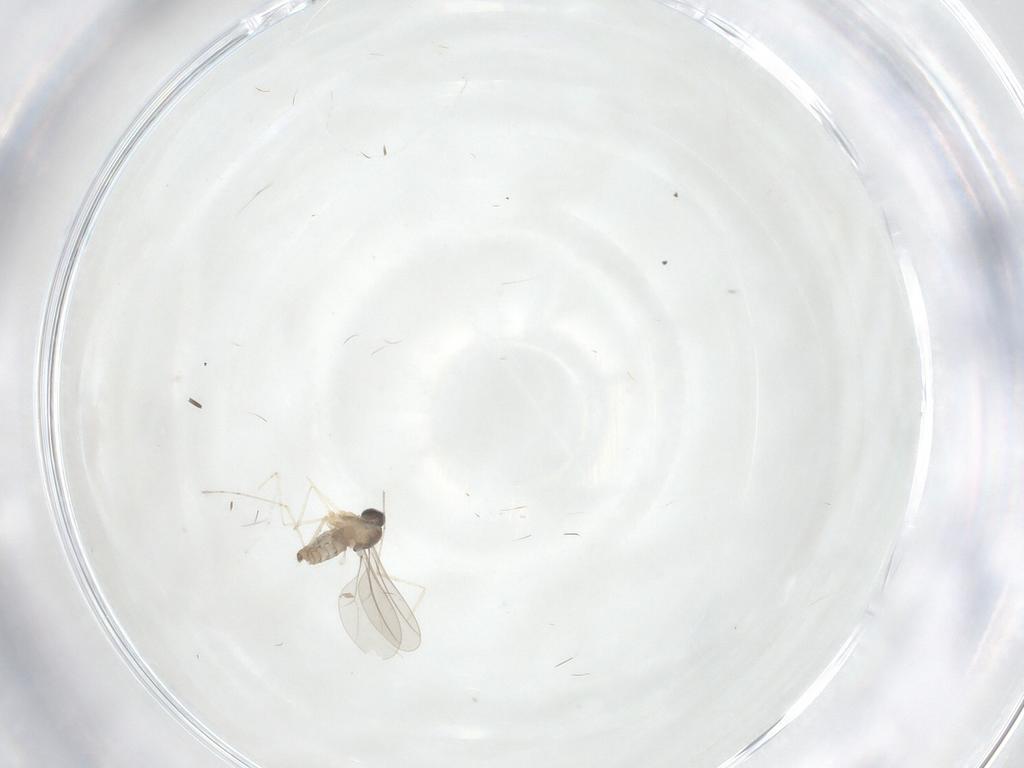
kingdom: Animalia
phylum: Arthropoda
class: Insecta
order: Diptera
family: Cecidomyiidae
